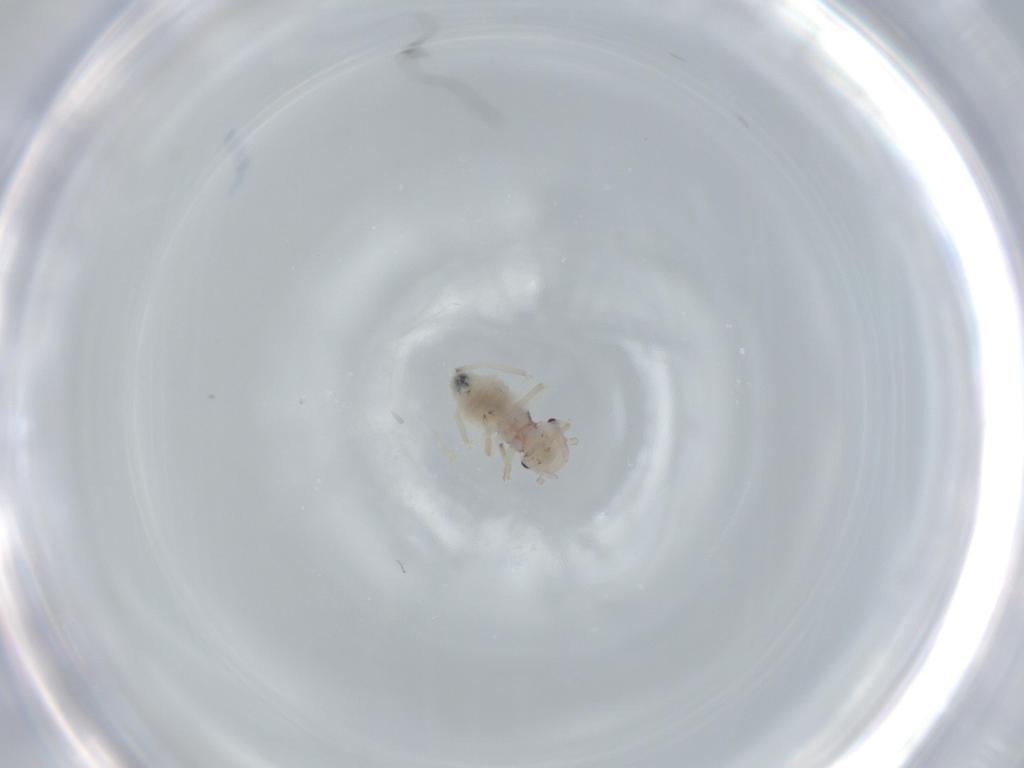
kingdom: Animalia
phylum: Arthropoda
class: Insecta
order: Psocodea
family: Amphipsocidae
